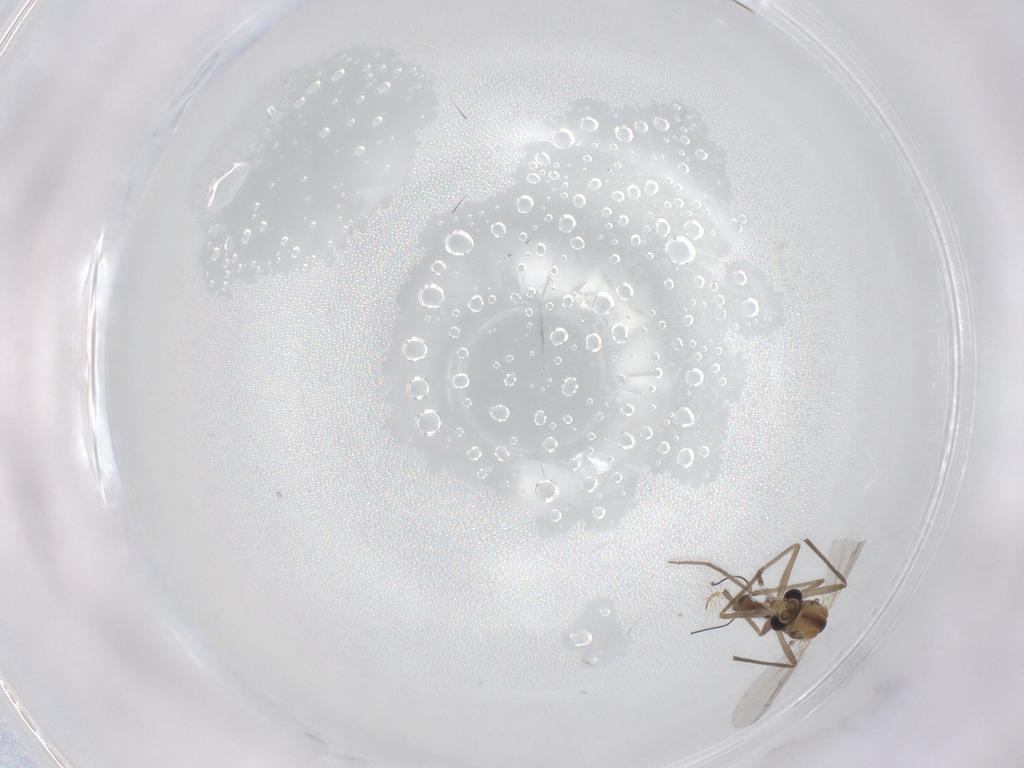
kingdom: Animalia
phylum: Arthropoda
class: Insecta
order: Diptera
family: Chironomidae
